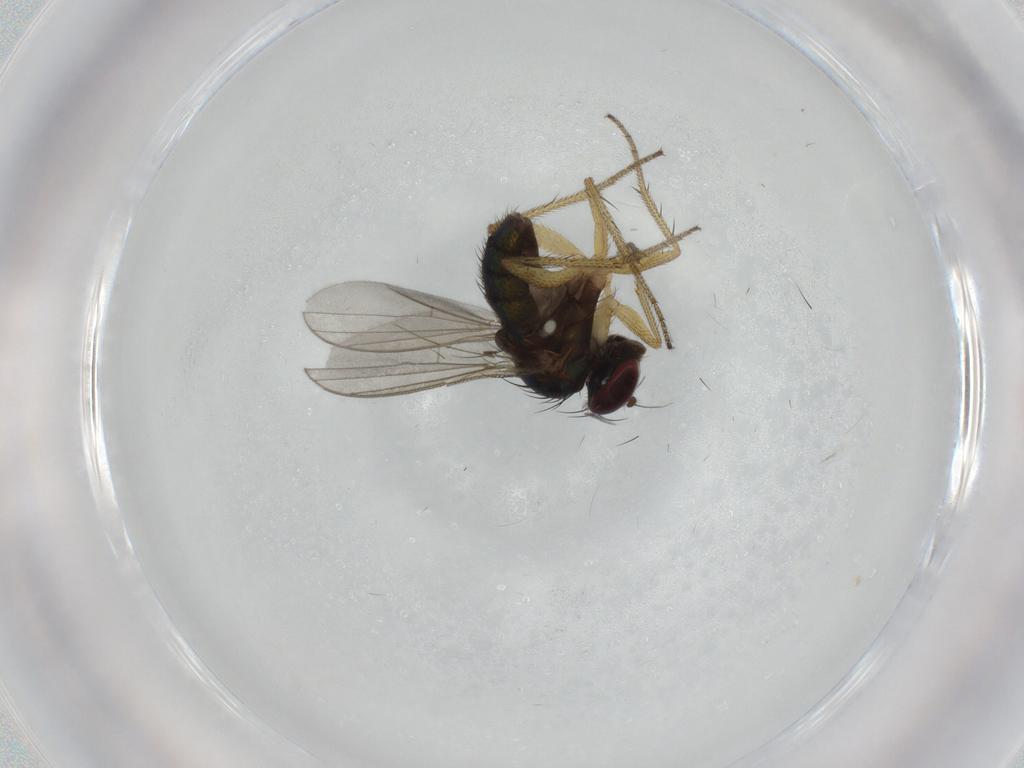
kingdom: Animalia
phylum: Arthropoda
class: Insecta
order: Diptera
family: Dolichopodidae
